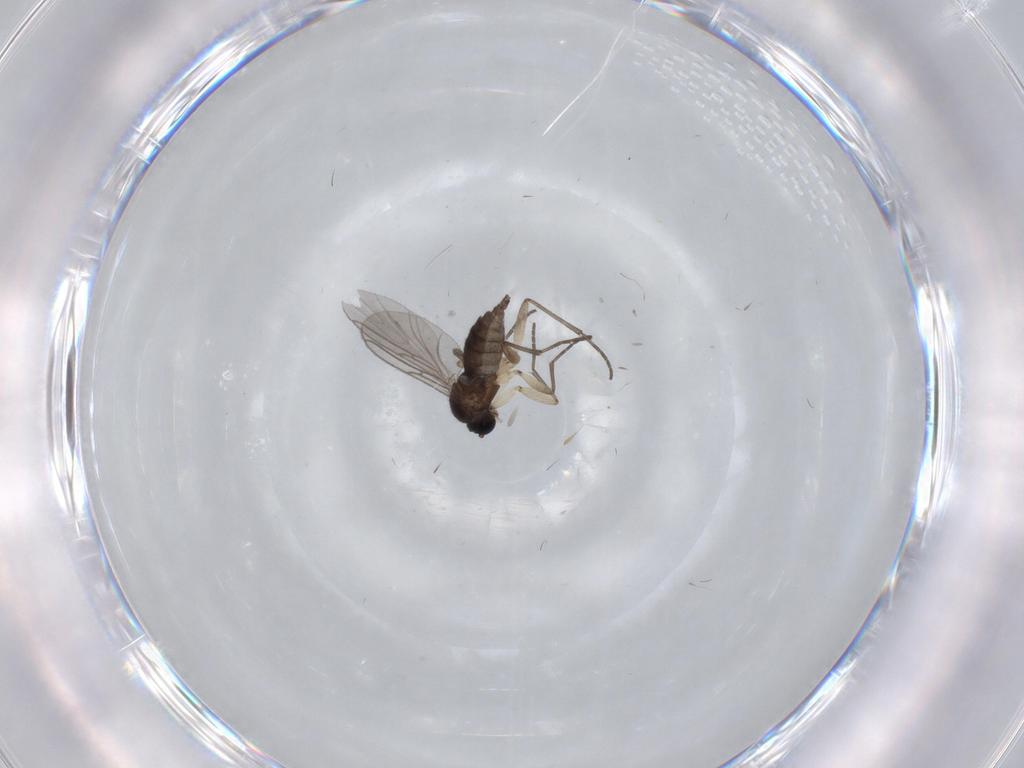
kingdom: Animalia
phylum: Arthropoda
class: Insecta
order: Diptera
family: Sciaridae
